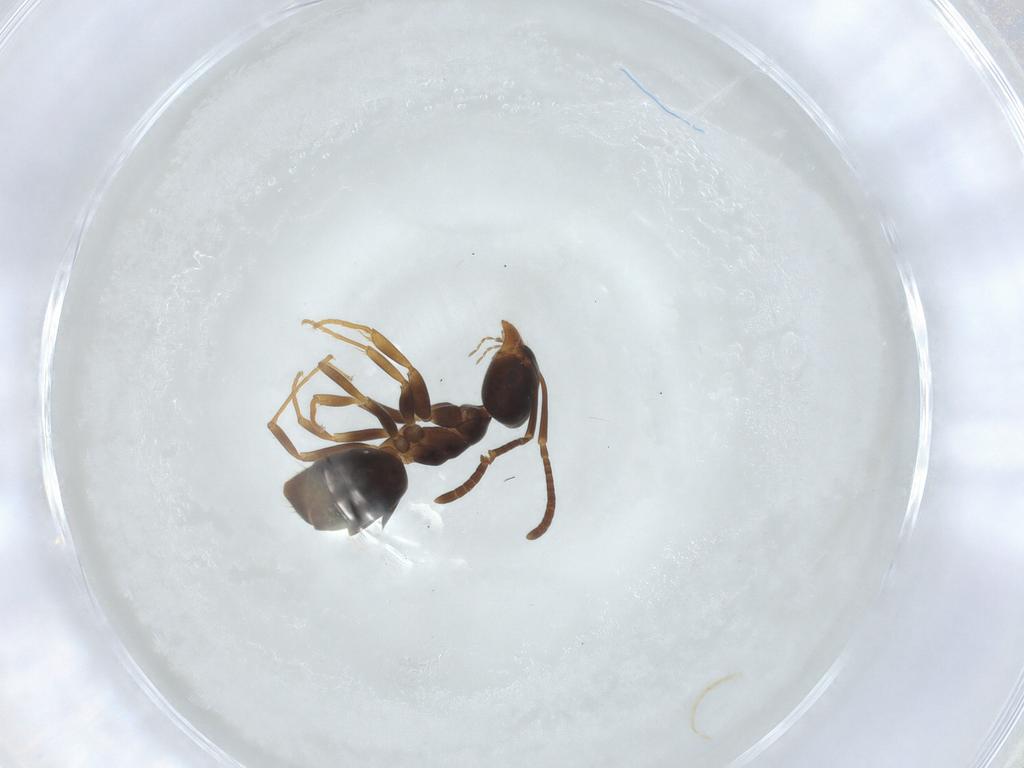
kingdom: Animalia
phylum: Arthropoda
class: Insecta
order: Hymenoptera
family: Formicidae
